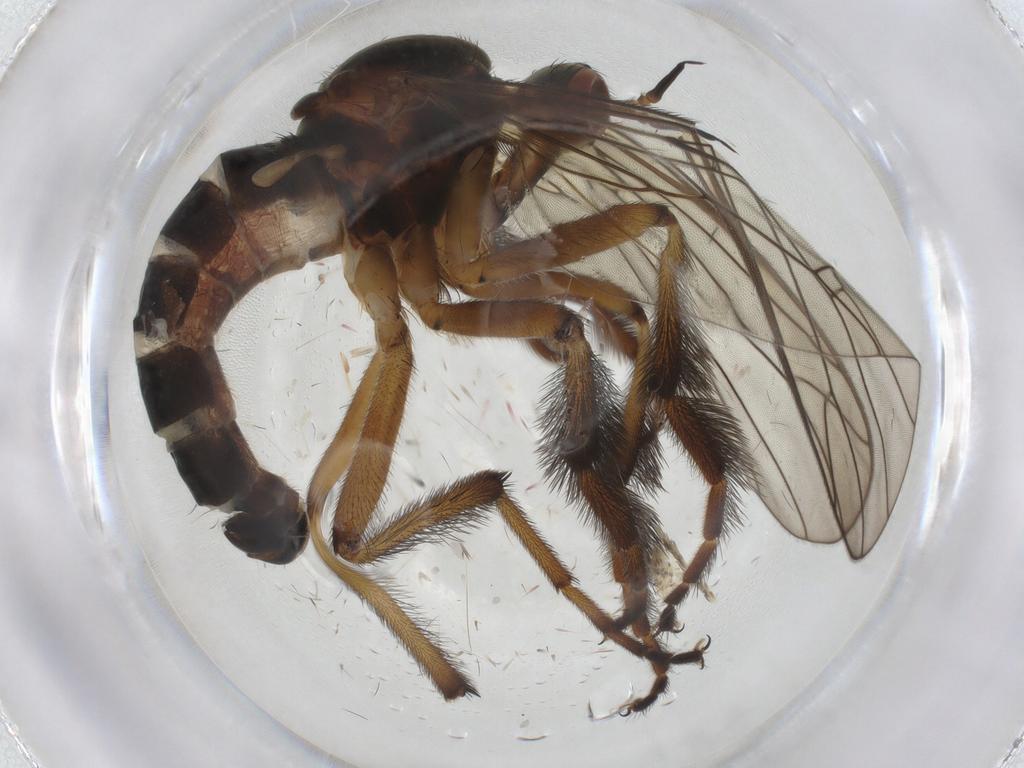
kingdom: Animalia
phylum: Arthropoda
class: Insecta
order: Diptera
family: Empididae
